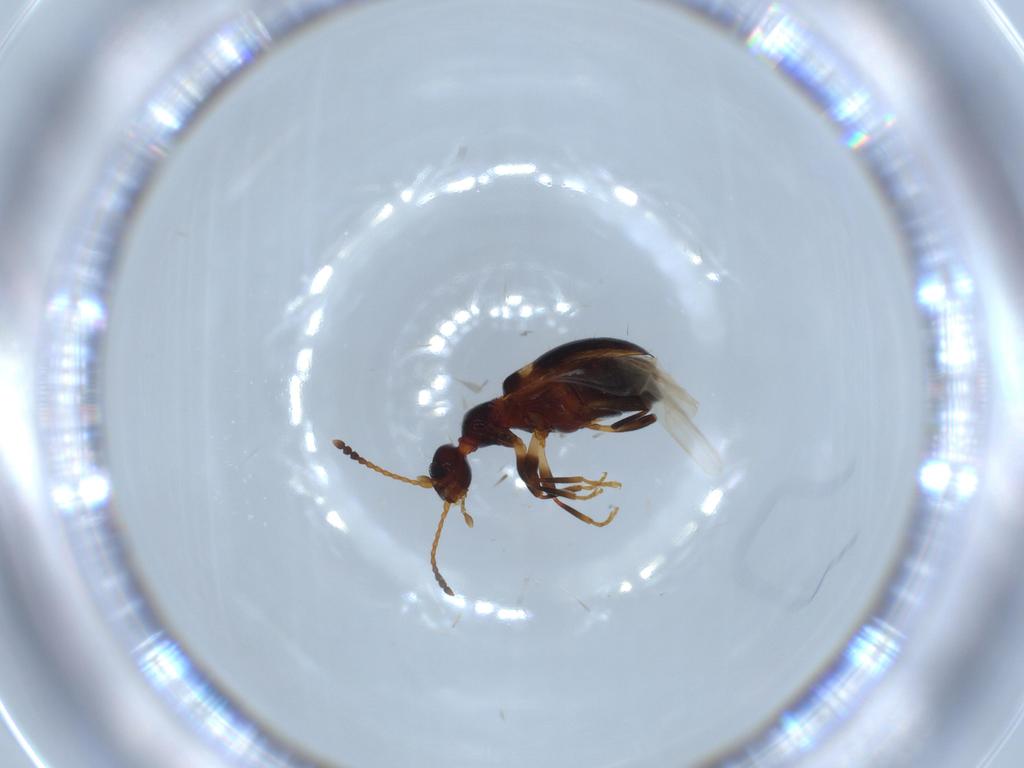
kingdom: Animalia
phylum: Arthropoda
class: Insecta
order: Coleoptera
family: Anthicidae
